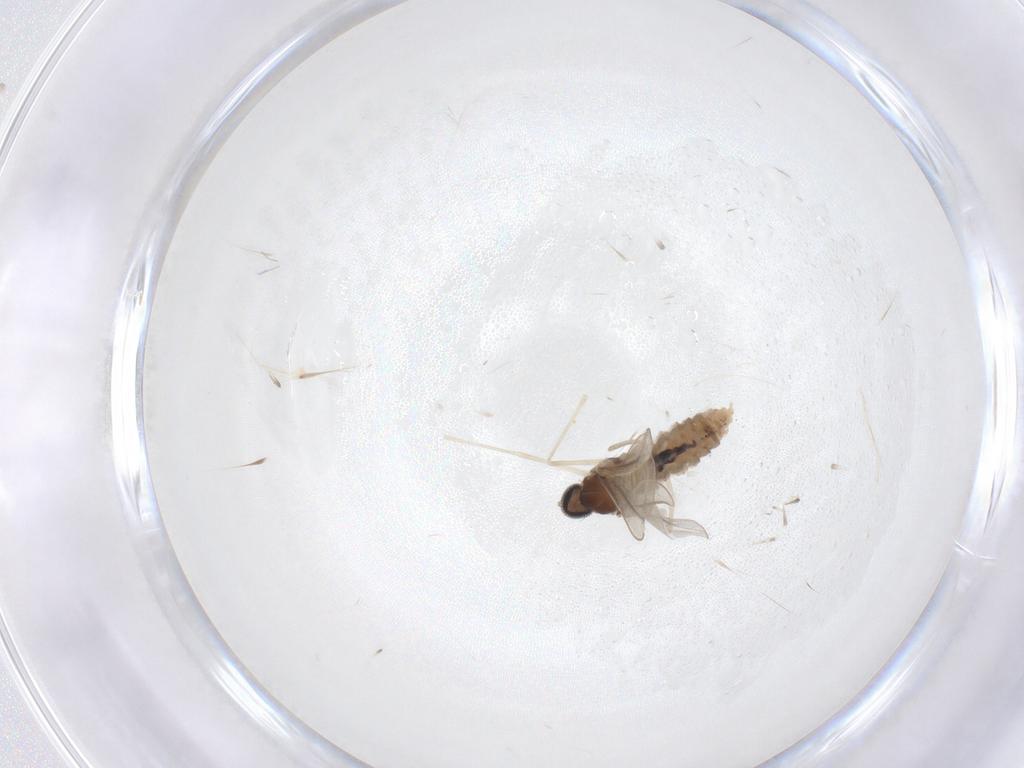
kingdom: Animalia
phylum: Arthropoda
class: Insecta
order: Diptera
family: Cecidomyiidae
